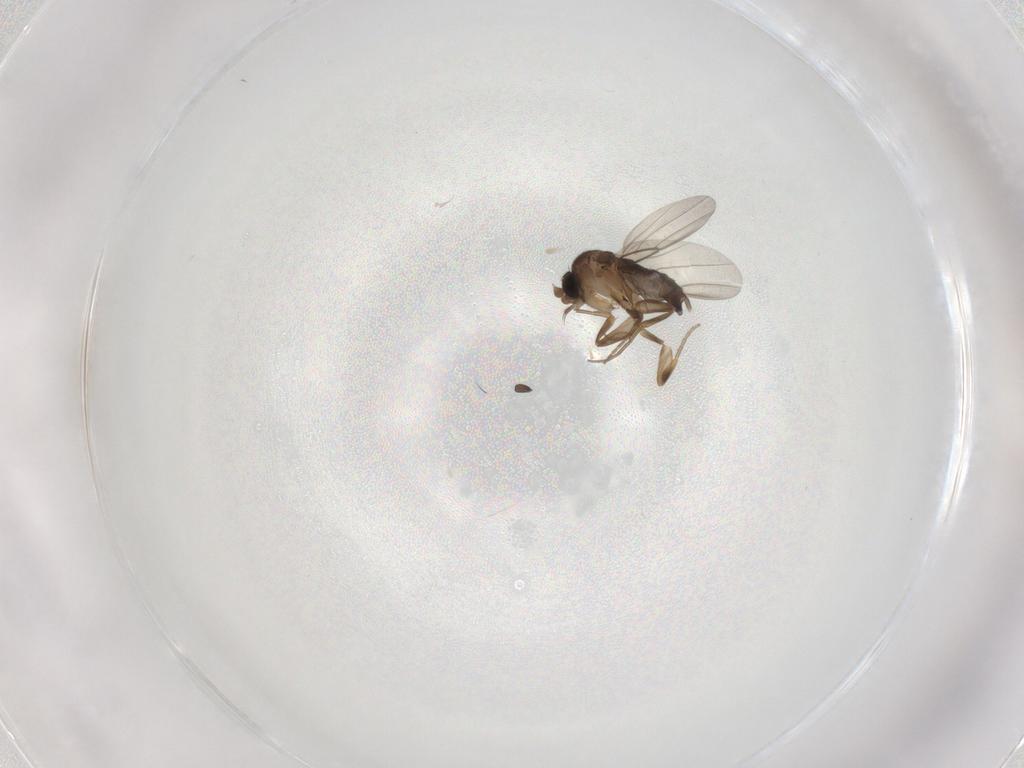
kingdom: Animalia
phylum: Arthropoda
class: Insecta
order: Diptera
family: Phoridae
